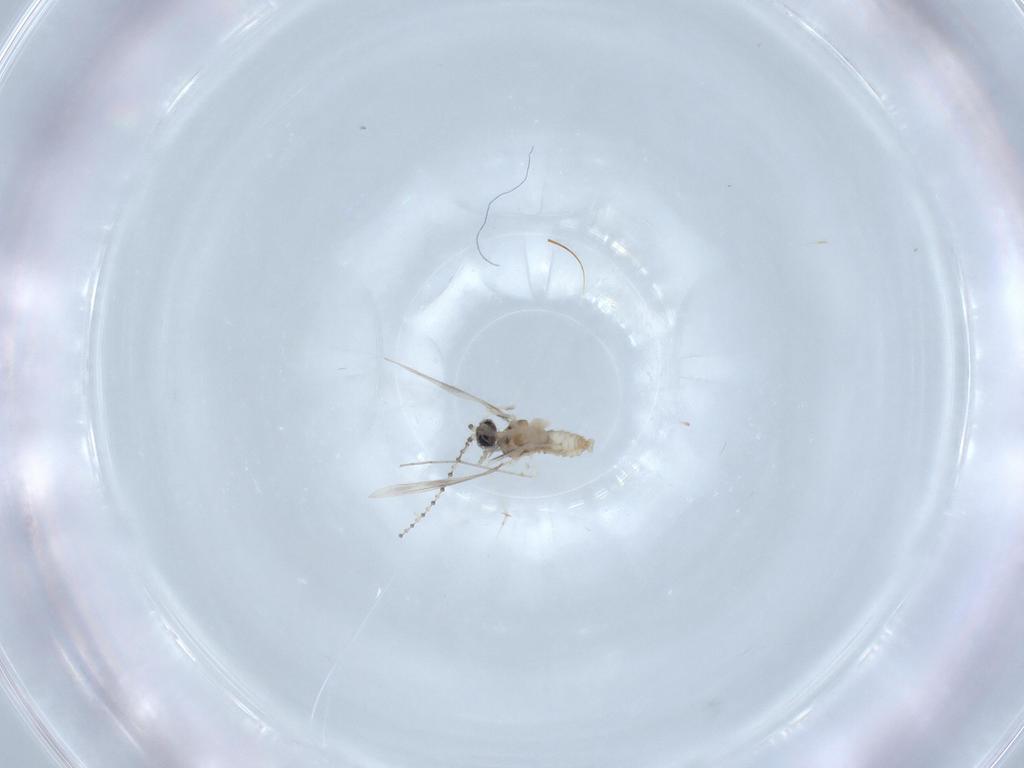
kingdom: Animalia
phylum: Arthropoda
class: Insecta
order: Diptera
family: Cecidomyiidae
